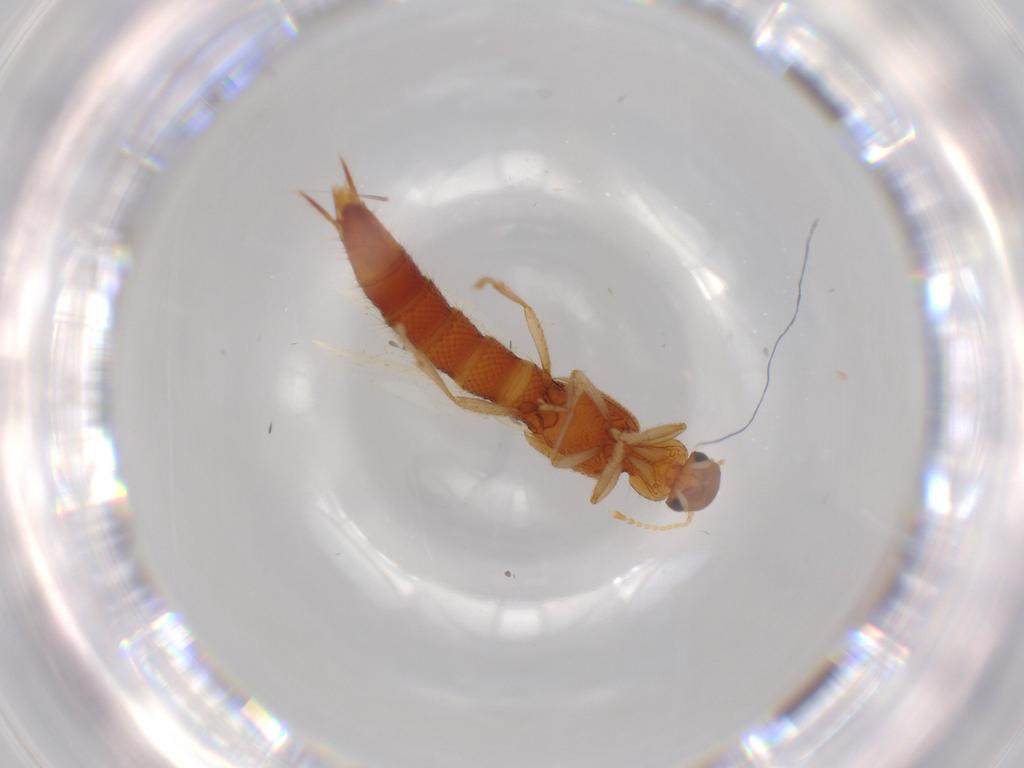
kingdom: Animalia
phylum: Arthropoda
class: Insecta
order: Coleoptera
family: Staphylinidae
